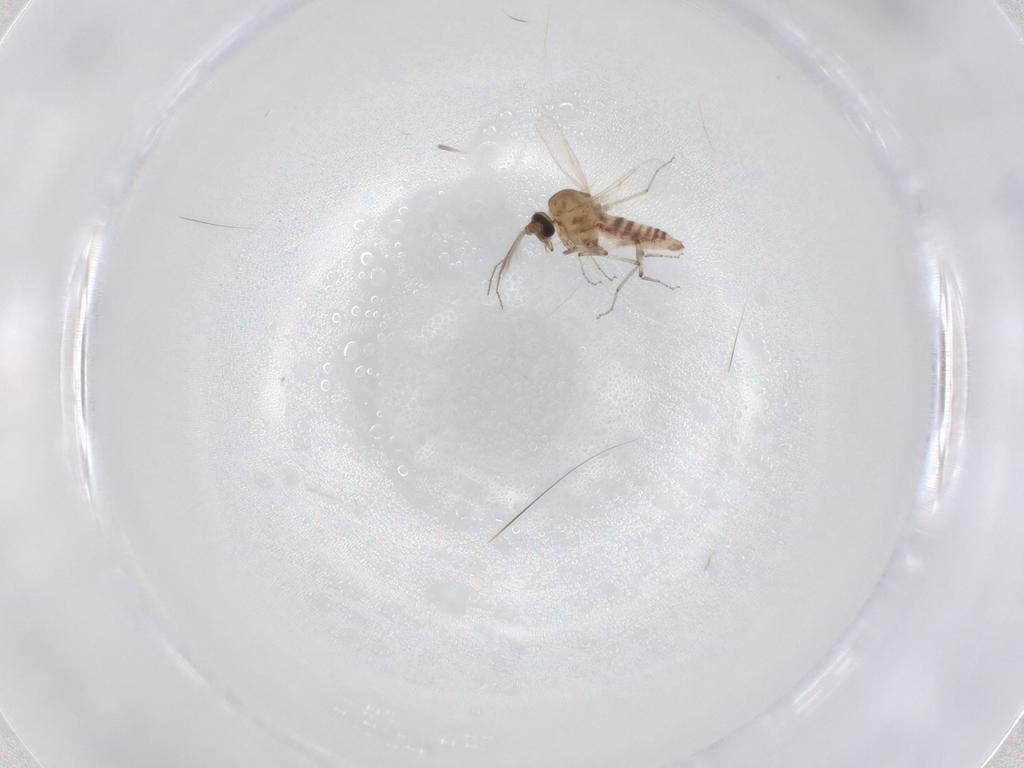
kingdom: Animalia
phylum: Arthropoda
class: Insecta
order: Diptera
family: Ceratopogonidae
